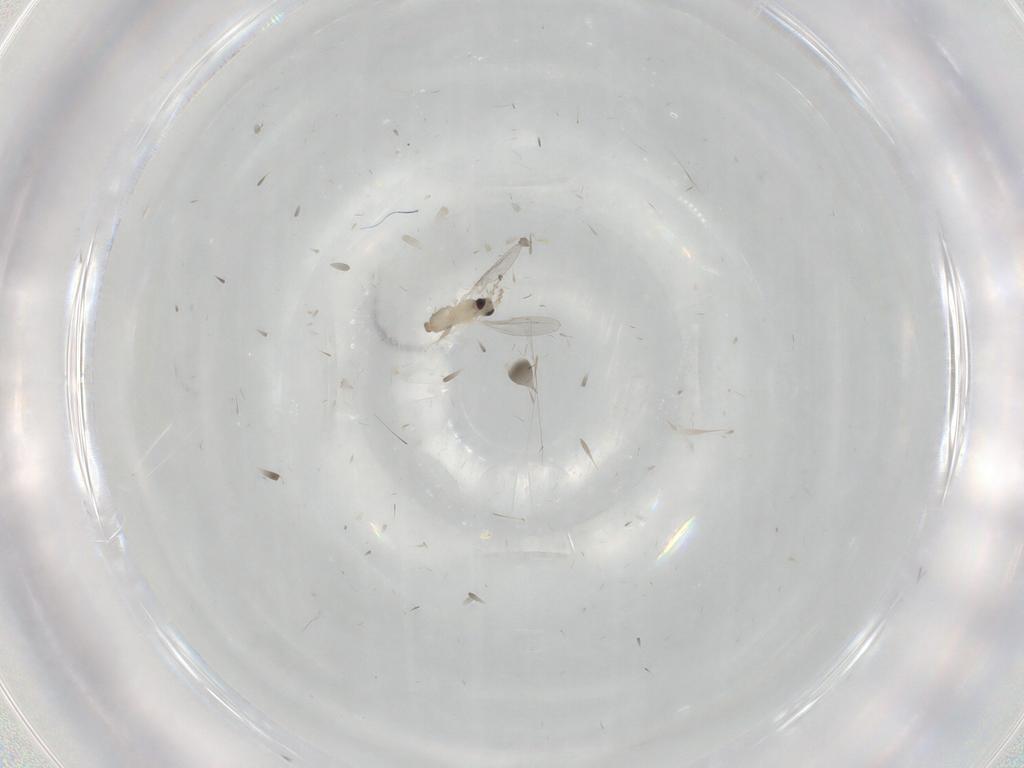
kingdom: Animalia
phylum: Arthropoda
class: Insecta
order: Diptera
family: Cecidomyiidae
